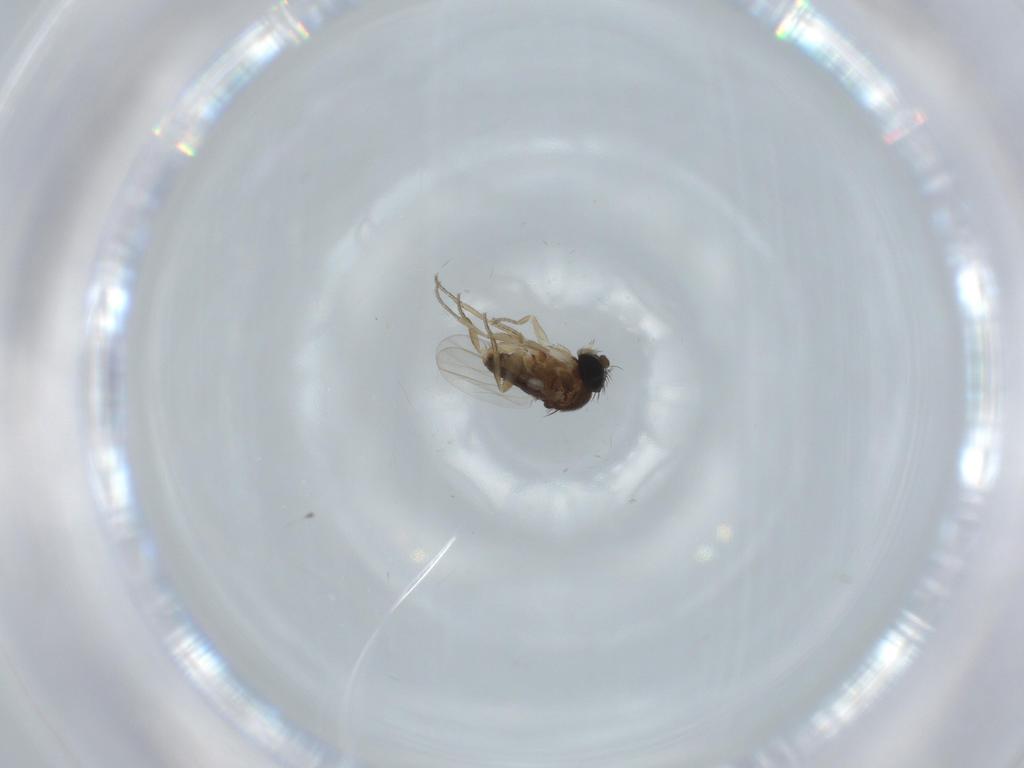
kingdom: Animalia
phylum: Arthropoda
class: Insecta
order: Diptera
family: Phoridae
